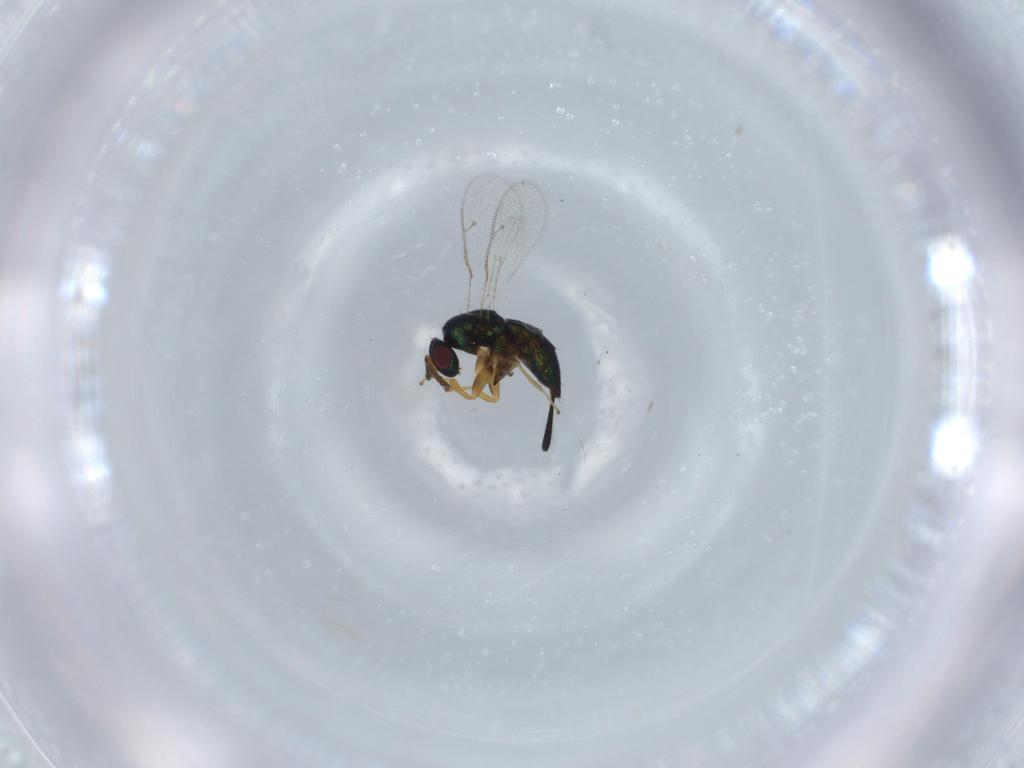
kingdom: Animalia
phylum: Arthropoda
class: Insecta
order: Hymenoptera
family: Torymidae
